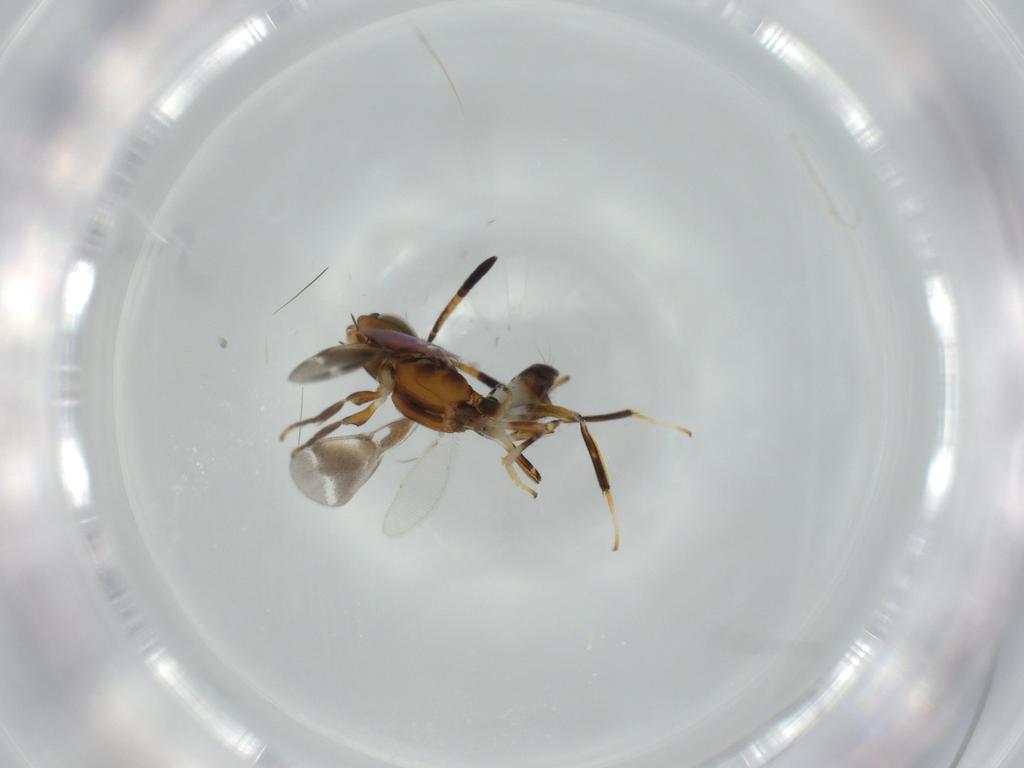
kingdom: Animalia
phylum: Arthropoda
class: Insecta
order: Hymenoptera
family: Eupelmidae
